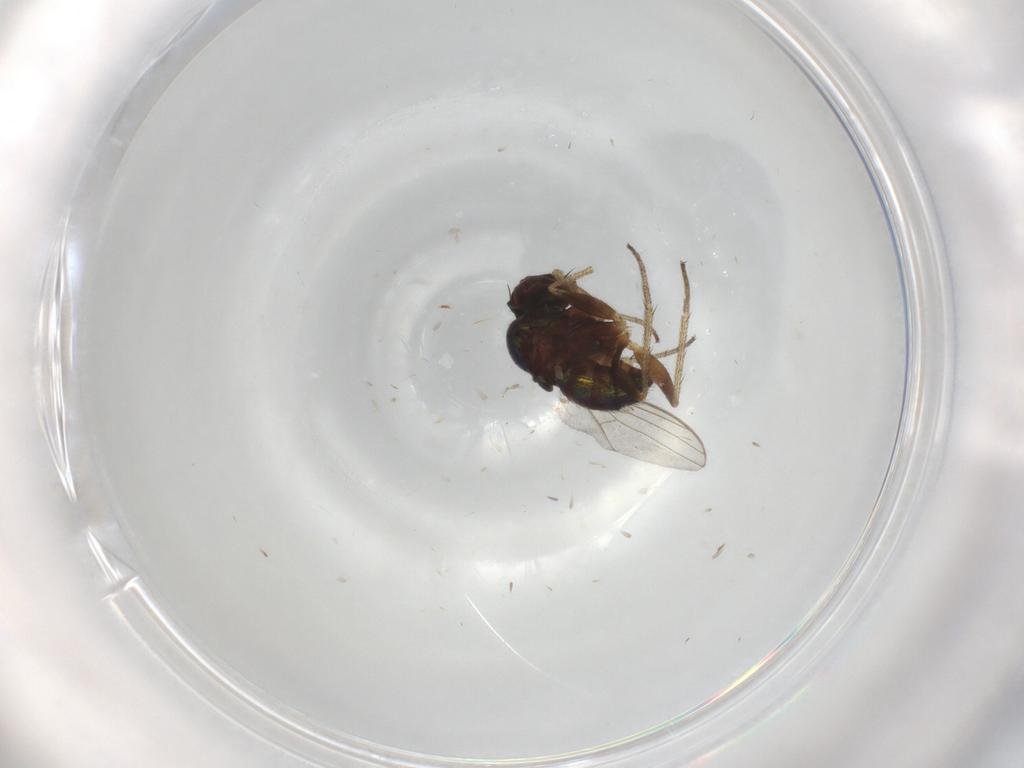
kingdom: Animalia
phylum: Arthropoda
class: Insecta
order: Diptera
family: Dolichopodidae
